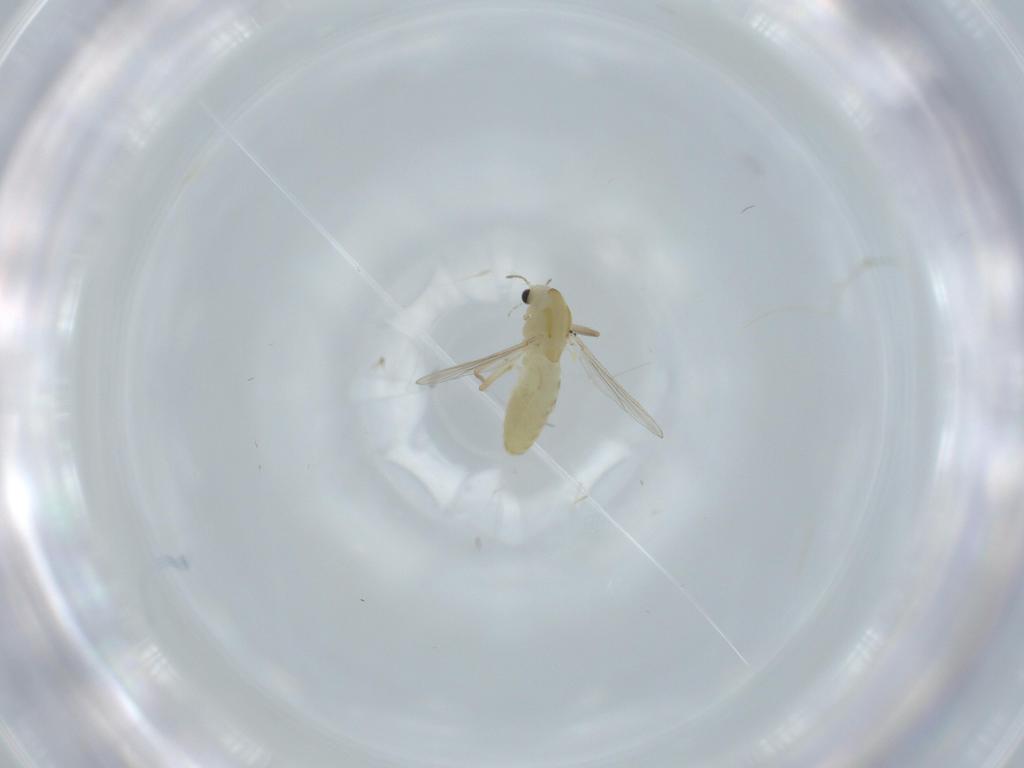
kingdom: Animalia
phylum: Arthropoda
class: Insecta
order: Diptera
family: Chironomidae
